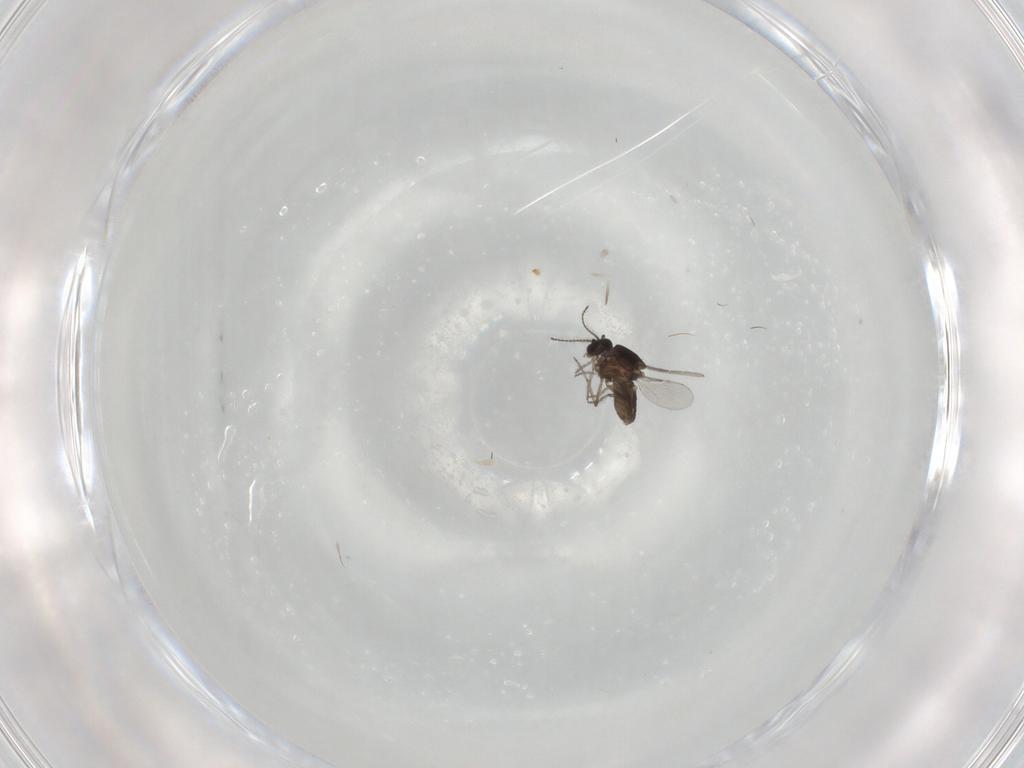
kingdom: Animalia
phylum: Arthropoda
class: Insecta
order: Diptera
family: Ceratopogonidae
